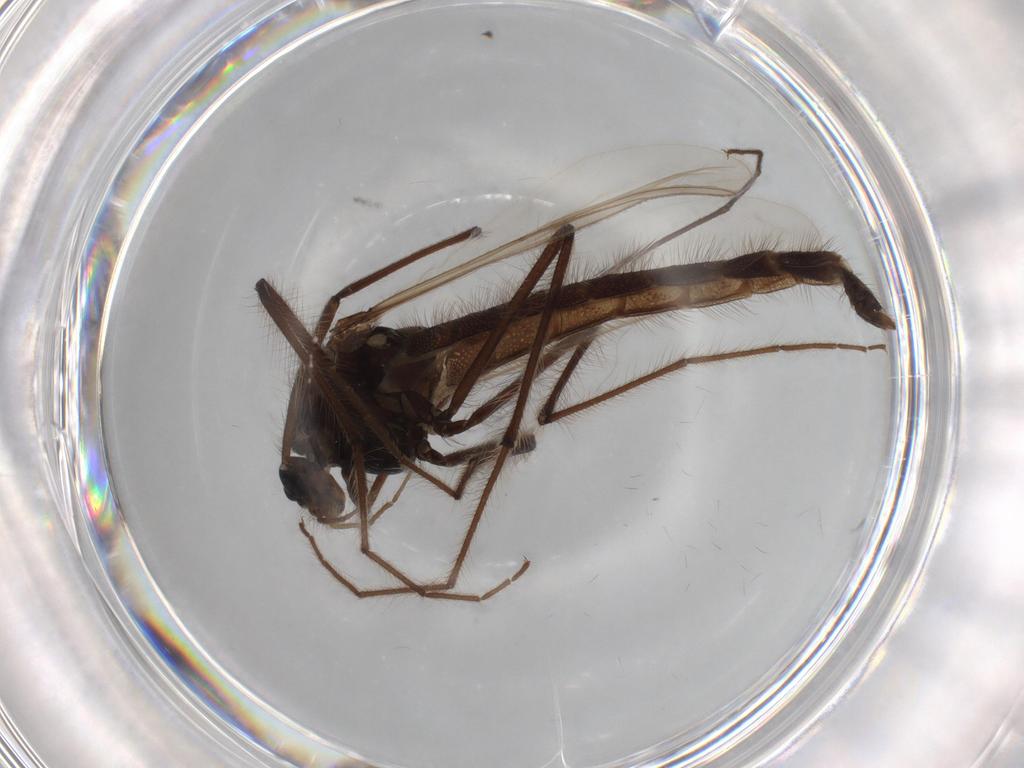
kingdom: Animalia
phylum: Arthropoda
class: Insecta
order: Diptera
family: Chironomidae
